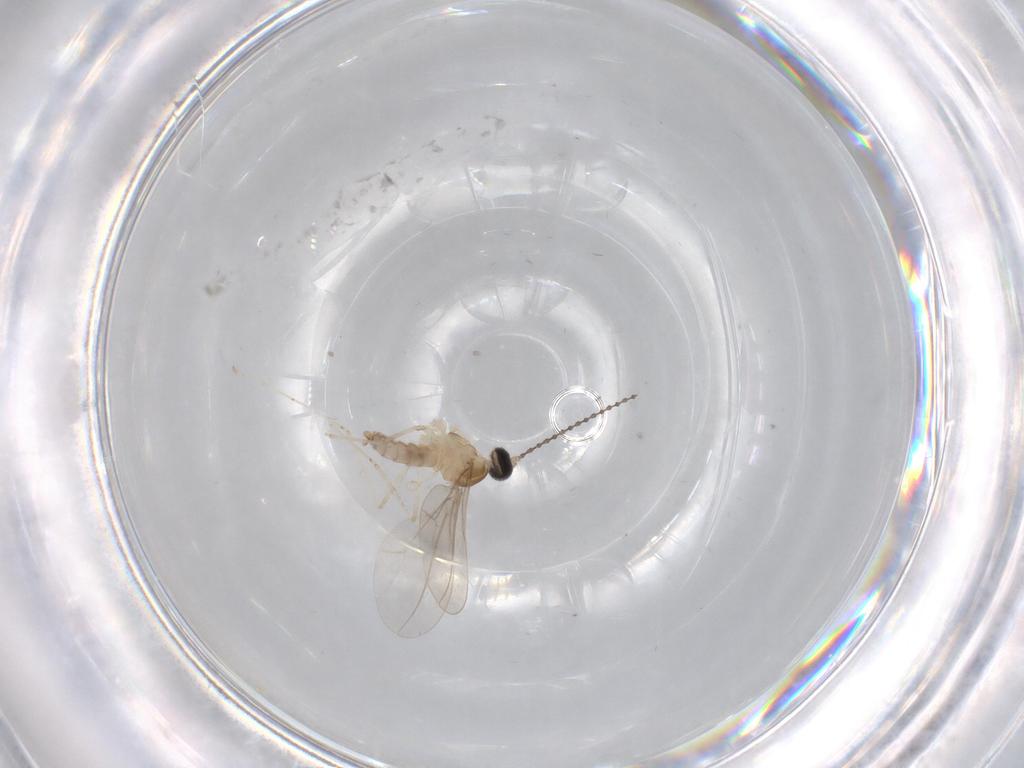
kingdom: Animalia
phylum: Arthropoda
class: Insecta
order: Diptera
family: Cecidomyiidae
